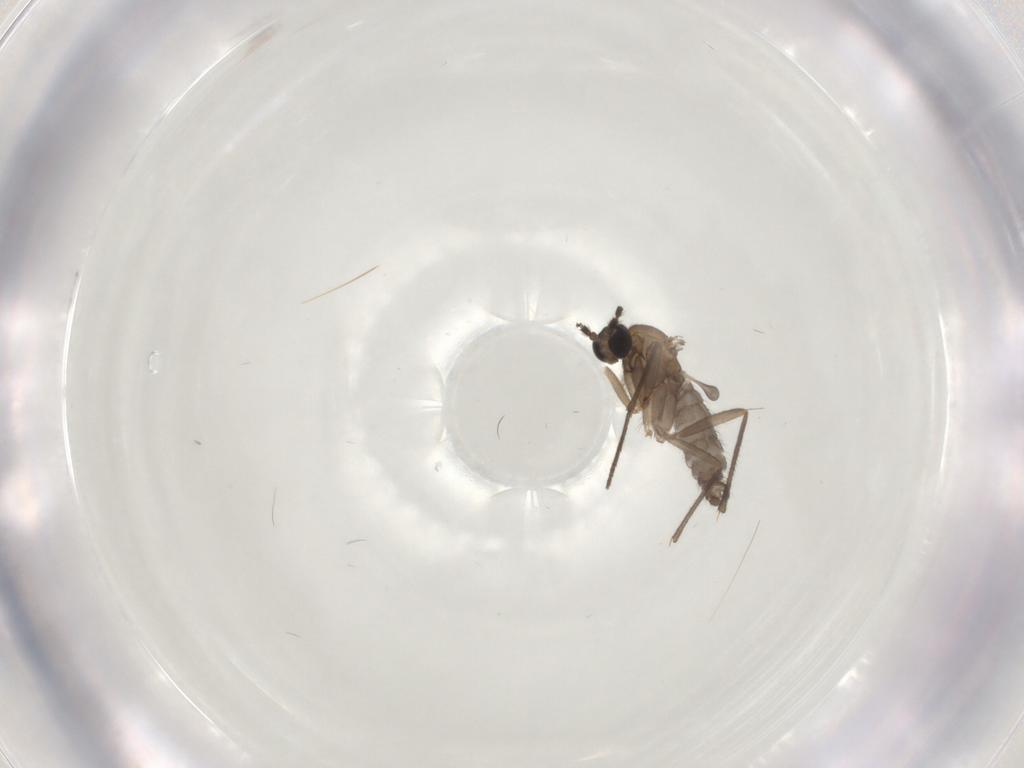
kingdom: Animalia
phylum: Arthropoda
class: Insecta
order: Diptera
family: Sciaridae
